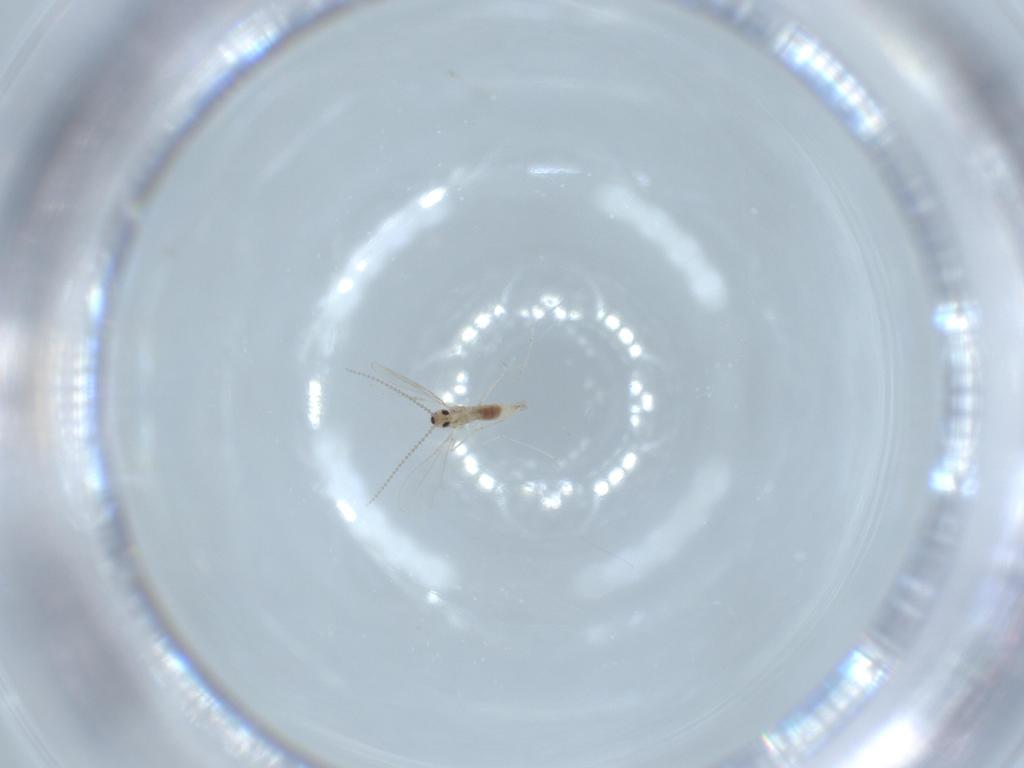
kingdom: Animalia
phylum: Arthropoda
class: Insecta
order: Diptera
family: Cecidomyiidae
